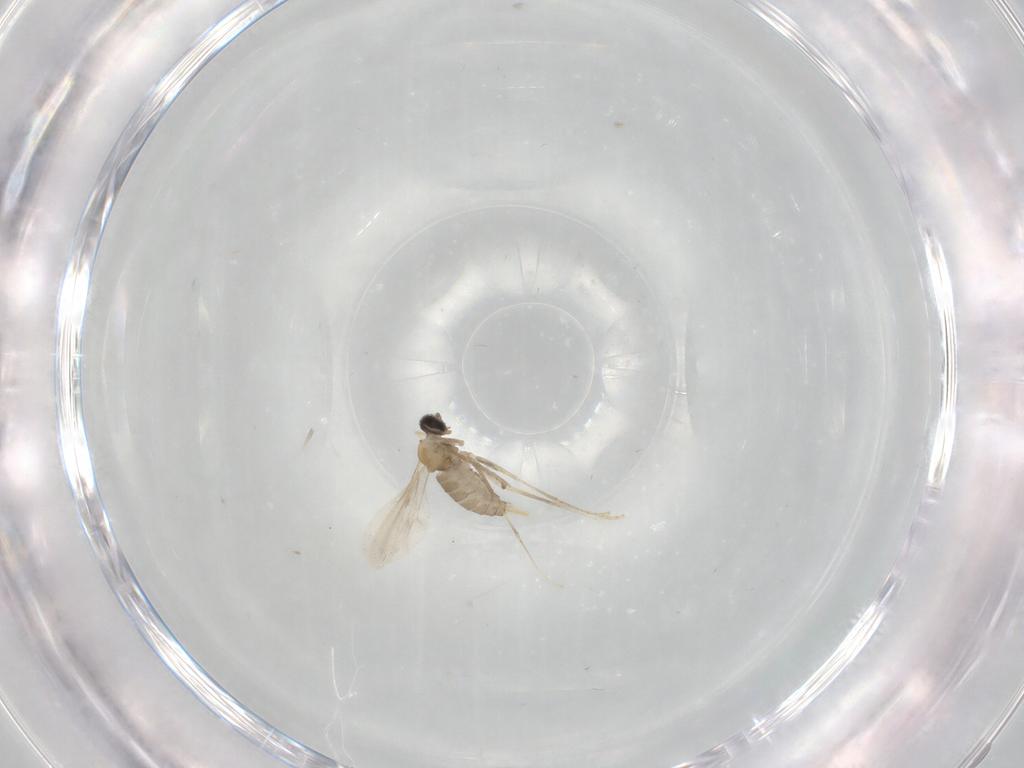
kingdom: Animalia
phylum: Arthropoda
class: Insecta
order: Diptera
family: Cecidomyiidae
